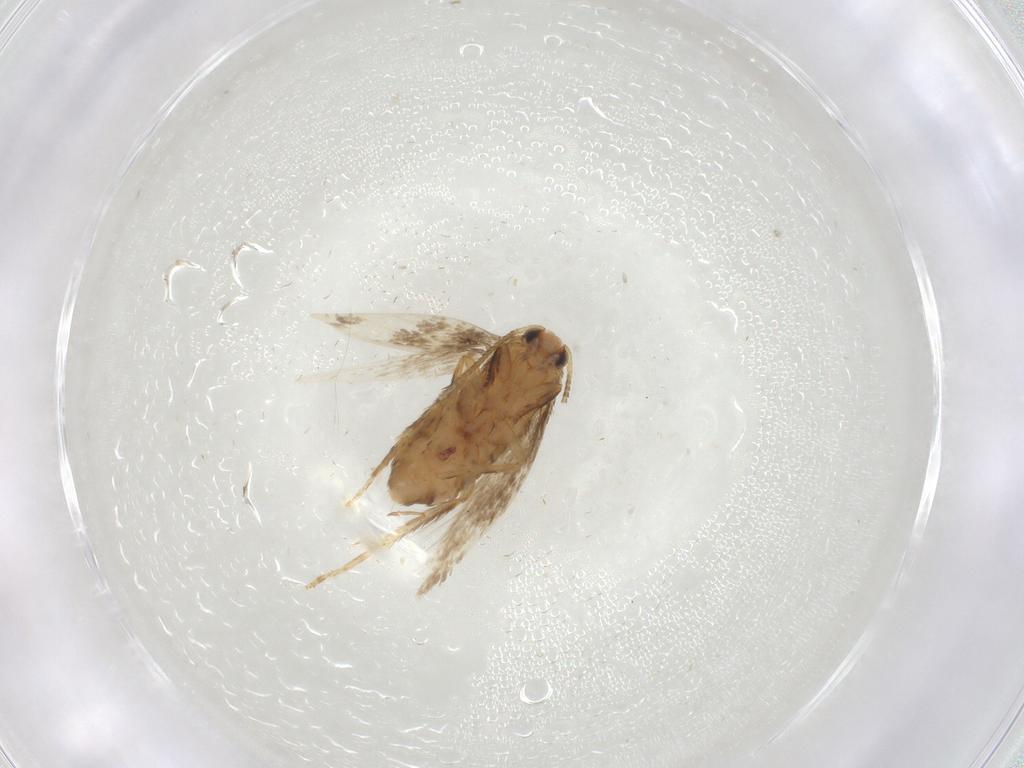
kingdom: Animalia
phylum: Arthropoda
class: Insecta
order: Lepidoptera
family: Nepticulidae
